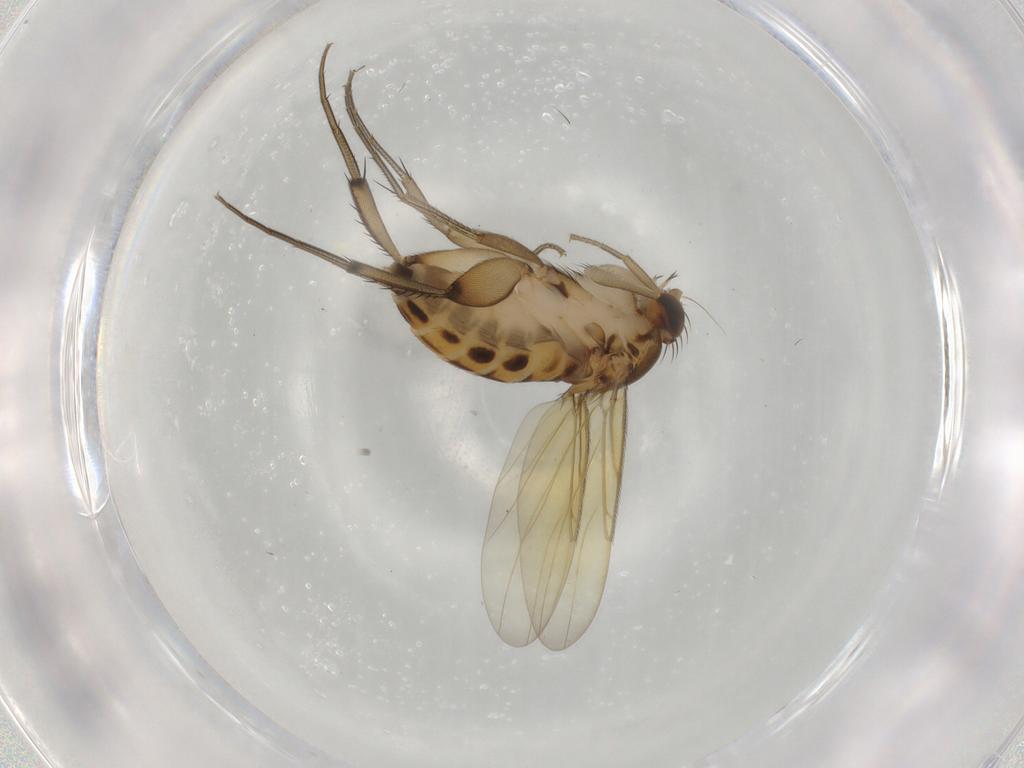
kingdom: Animalia
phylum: Arthropoda
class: Insecta
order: Diptera
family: Phoridae
